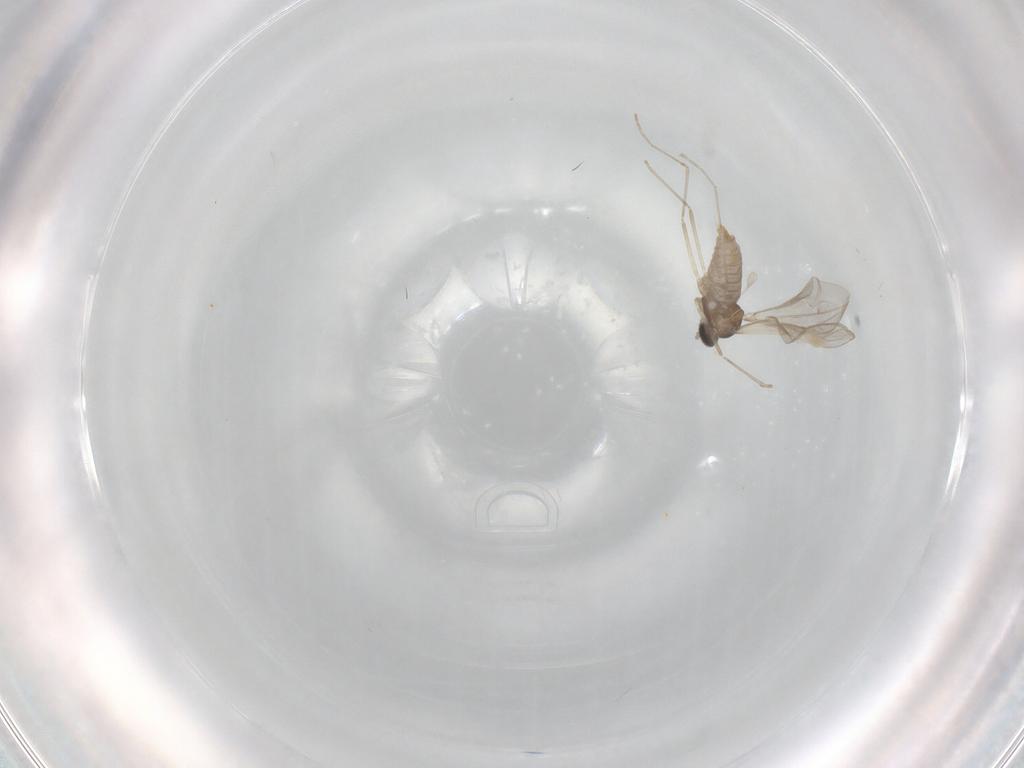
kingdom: Animalia
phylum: Arthropoda
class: Insecta
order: Diptera
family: Cecidomyiidae
